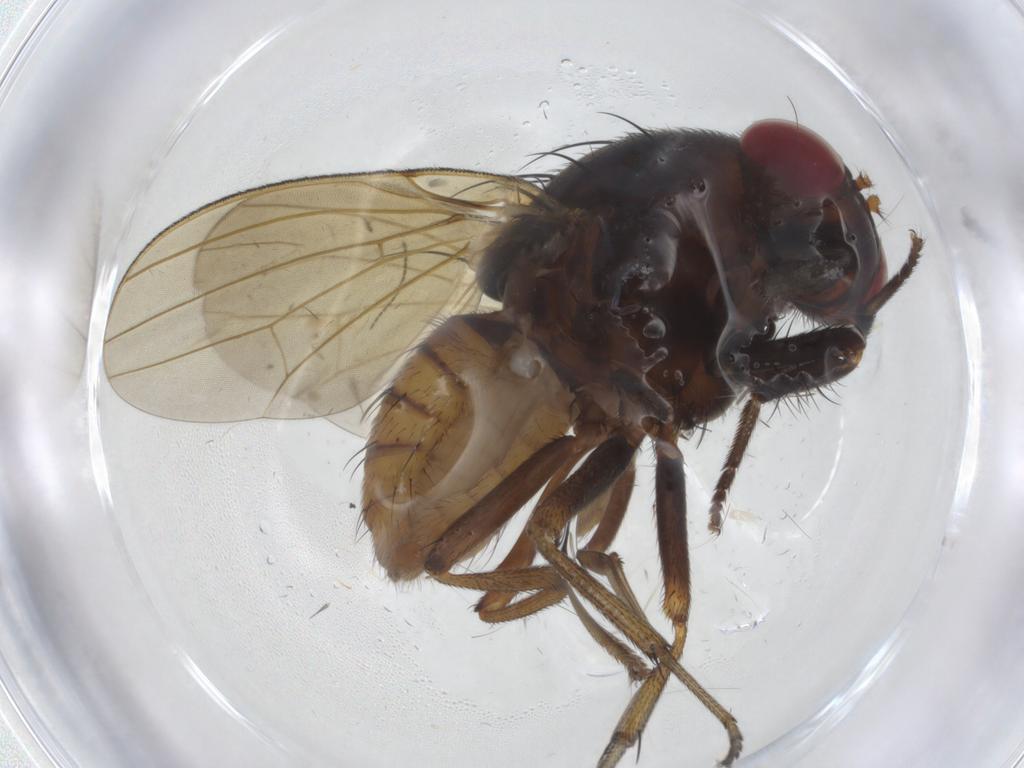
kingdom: Animalia
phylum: Arthropoda
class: Insecta
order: Diptera
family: Cecidomyiidae
